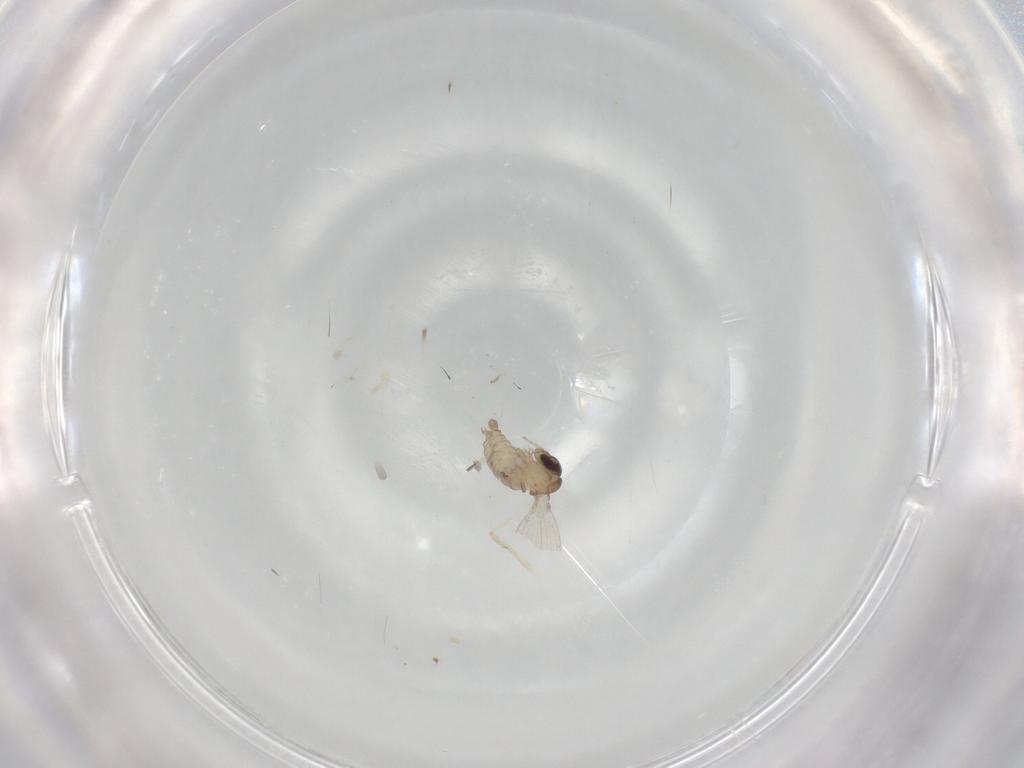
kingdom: Animalia
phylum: Arthropoda
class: Insecta
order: Diptera
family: Psychodidae
